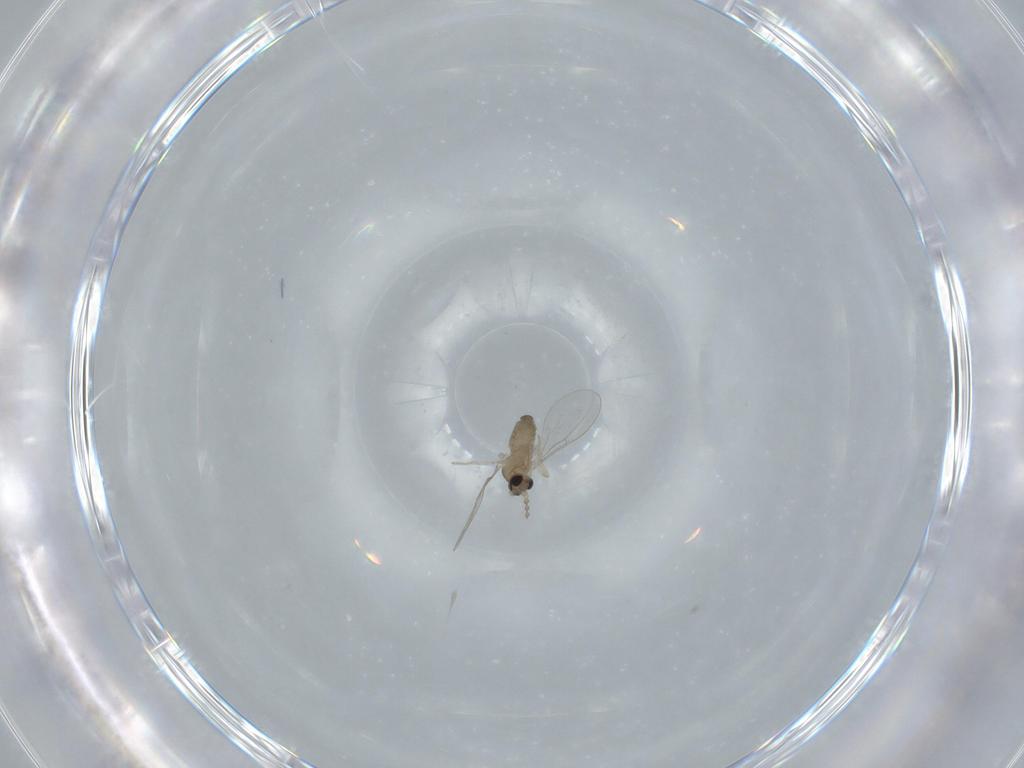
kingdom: Animalia
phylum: Arthropoda
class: Insecta
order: Diptera
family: Cecidomyiidae
